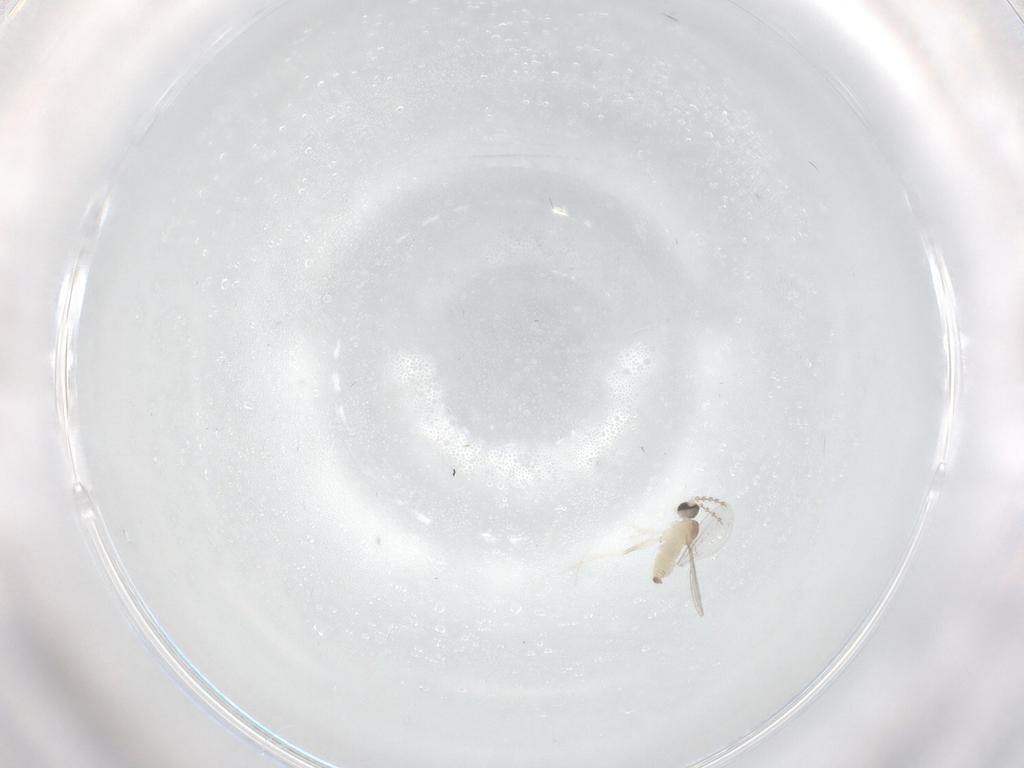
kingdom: Animalia
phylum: Arthropoda
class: Insecta
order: Diptera
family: Cecidomyiidae
